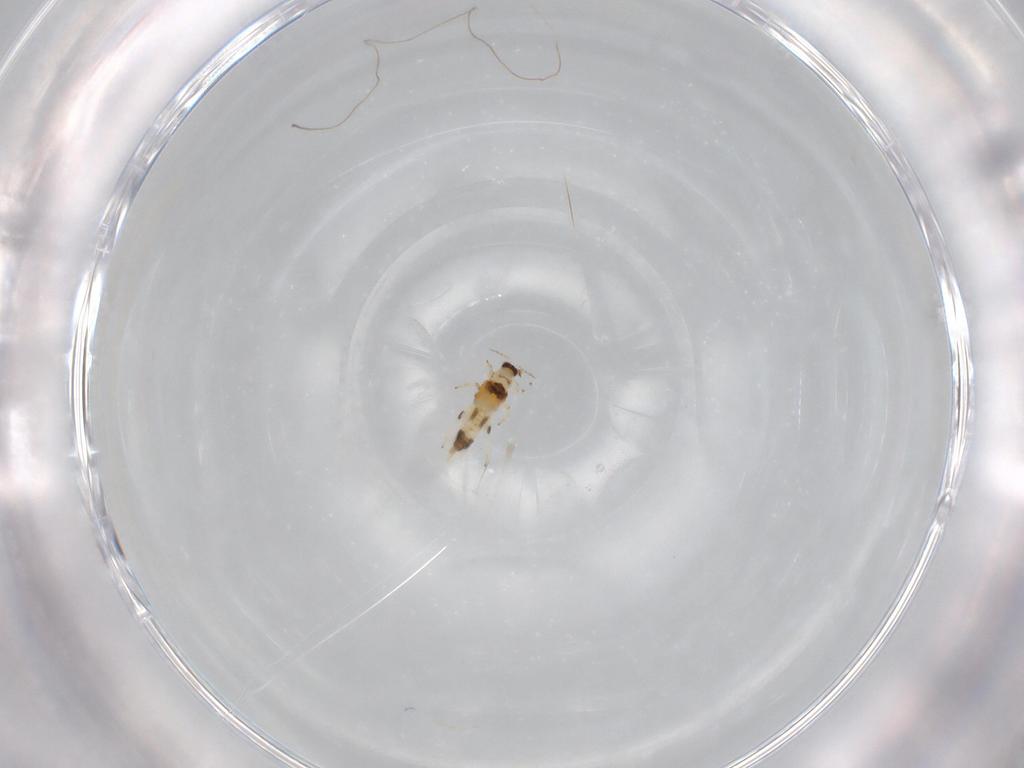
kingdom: Animalia
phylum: Arthropoda
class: Insecta
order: Thysanoptera
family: Thripidae
